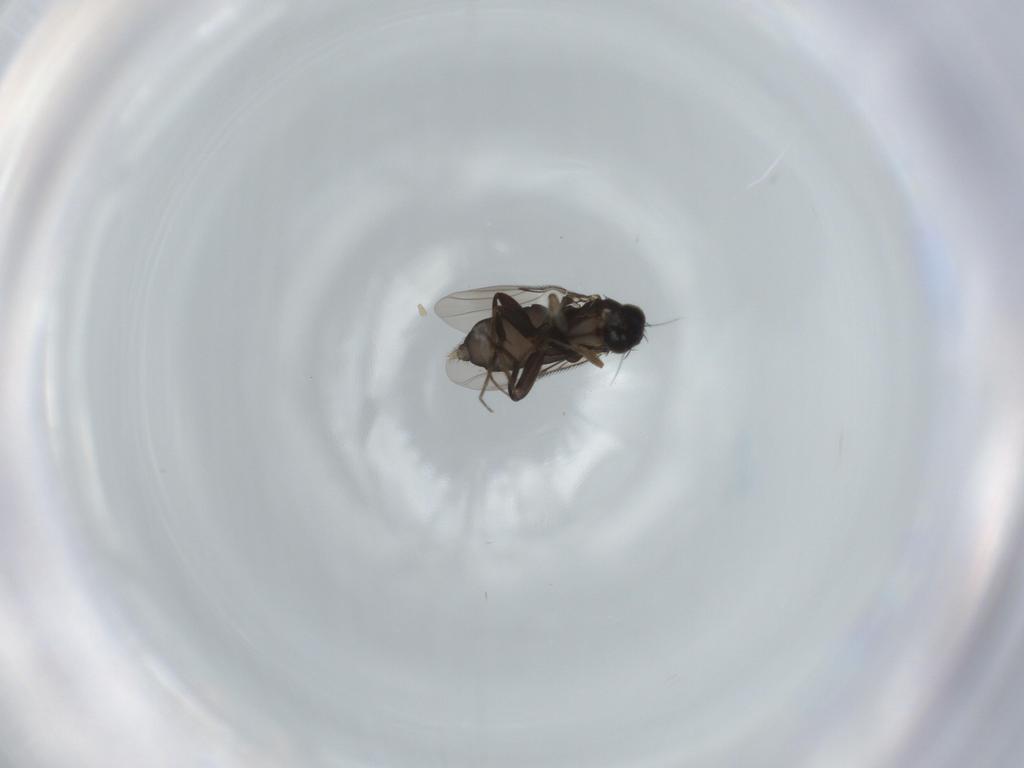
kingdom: Animalia
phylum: Arthropoda
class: Insecta
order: Diptera
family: Phoridae
